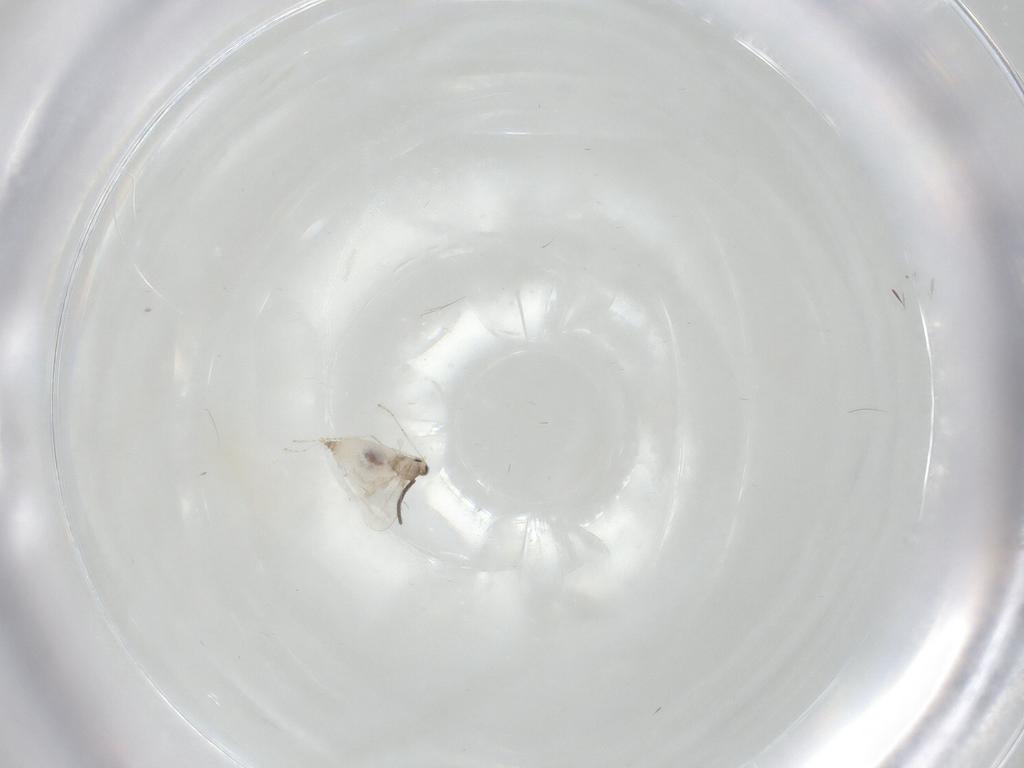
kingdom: Animalia
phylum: Arthropoda
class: Insecta
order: Diptera
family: Cecidomyiidae
